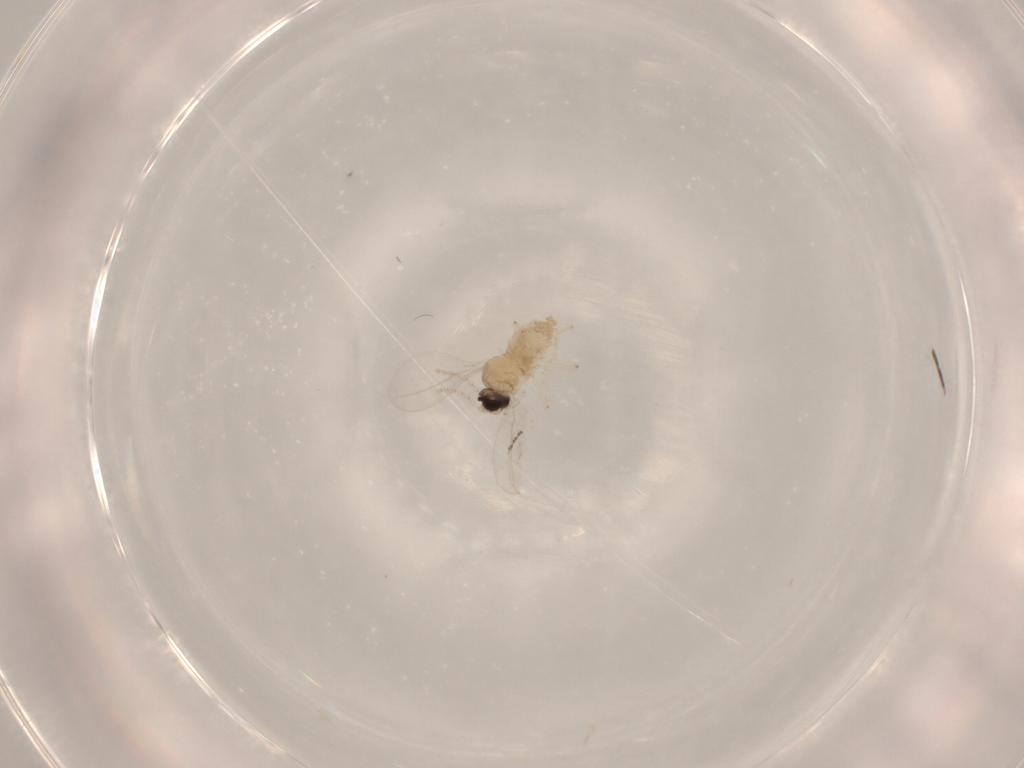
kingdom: Animalia
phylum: Arthropoda
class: Insecta
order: Diptera
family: Cecidomyiidae
